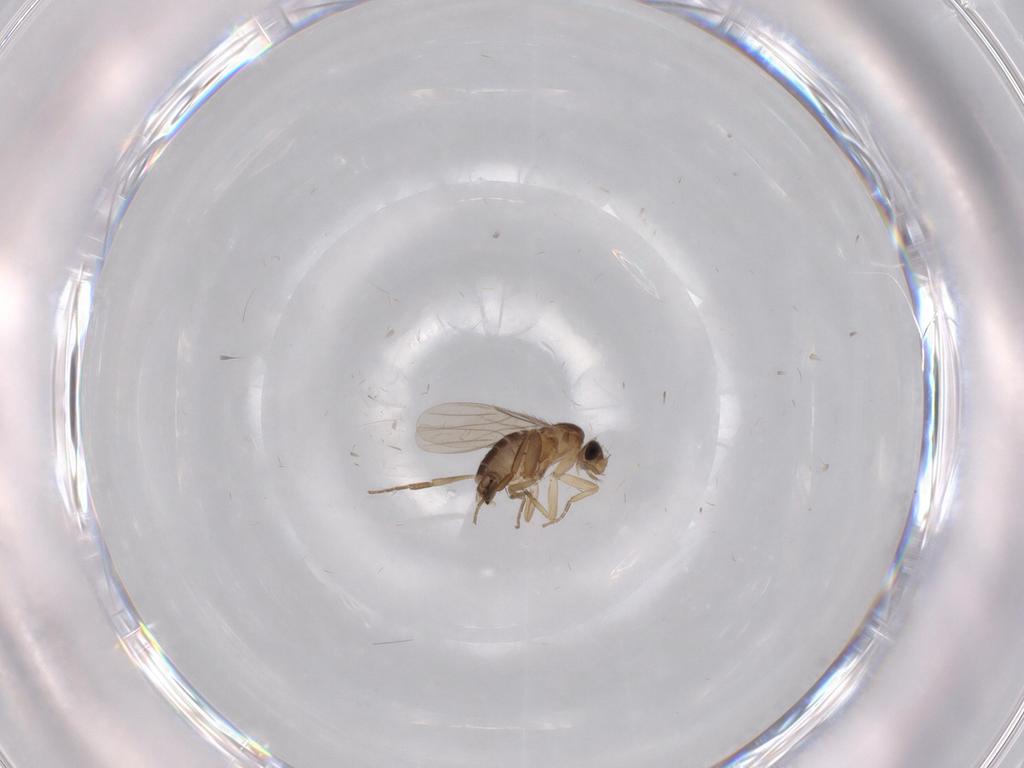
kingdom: Animalia
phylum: Arthropoda
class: Insecta
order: Diptera
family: Phoridae
